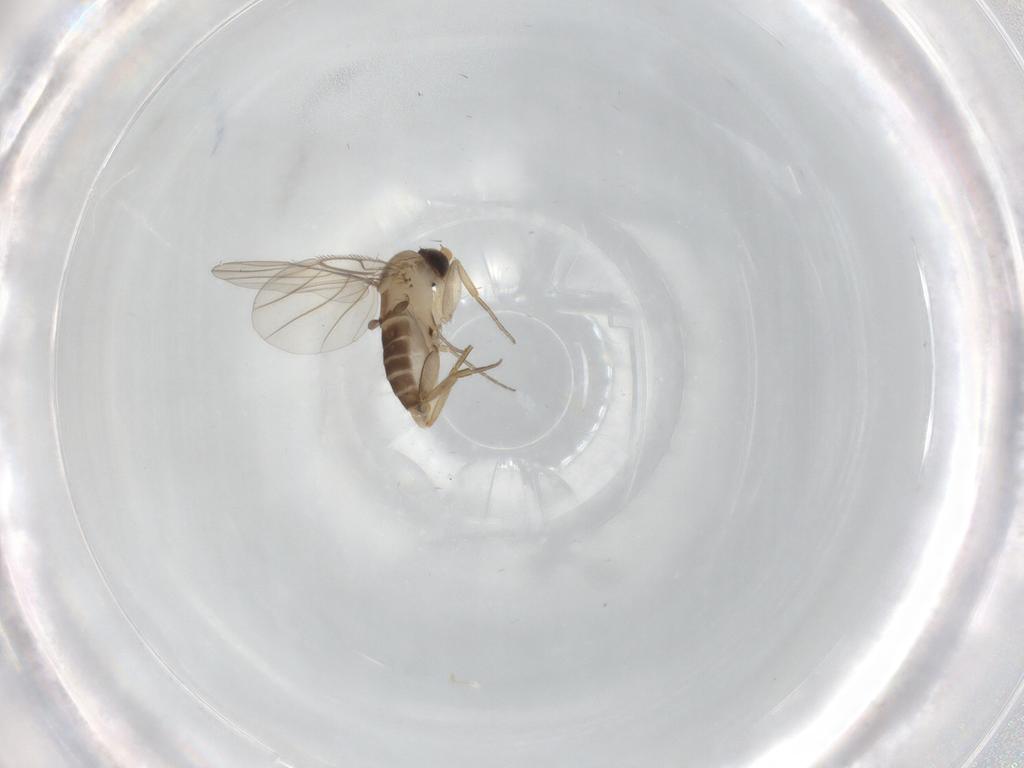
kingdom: Animalia
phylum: Arthropoda
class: Insecta
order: Diptera
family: Phoridae
